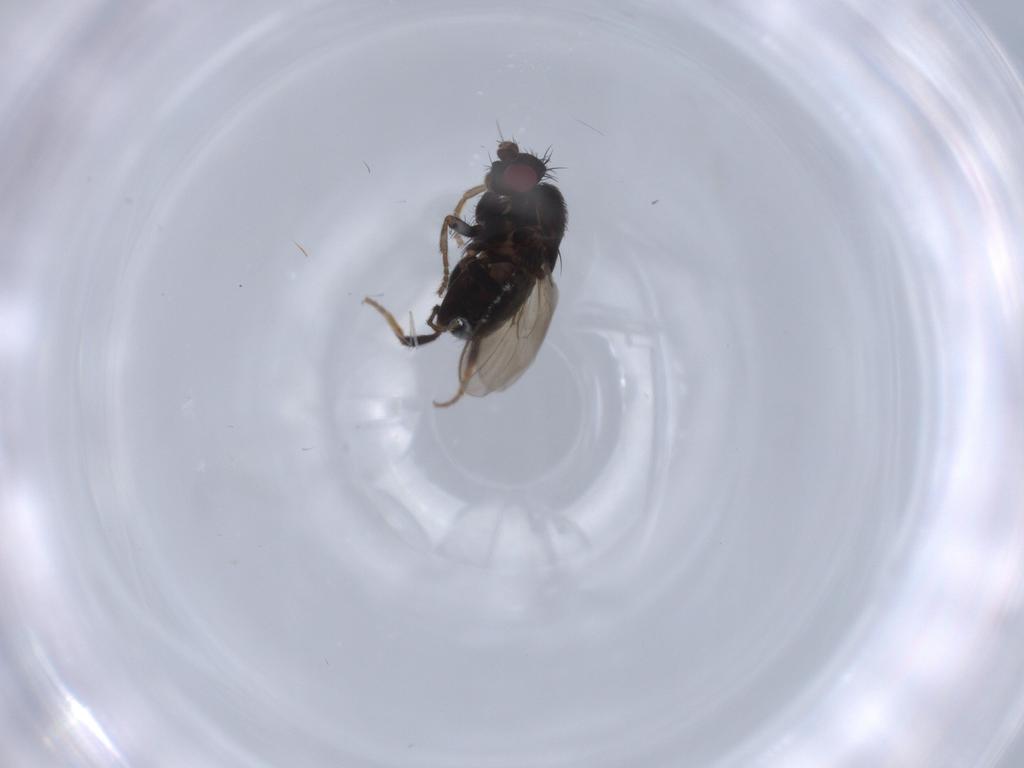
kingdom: Animalia
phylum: Arthropoda
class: Insecta
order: Diptera
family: Sphaeroceridae
